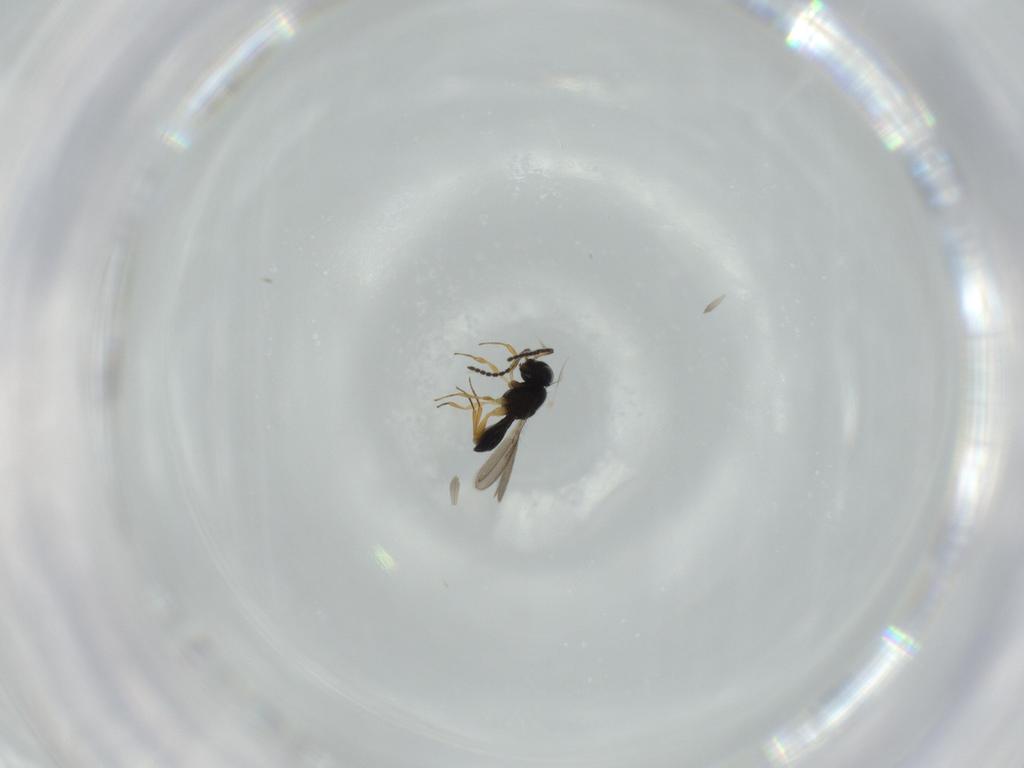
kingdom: Animalia
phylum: Arthropoda
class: Insecta
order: Hymenoptera
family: Scelionidae
